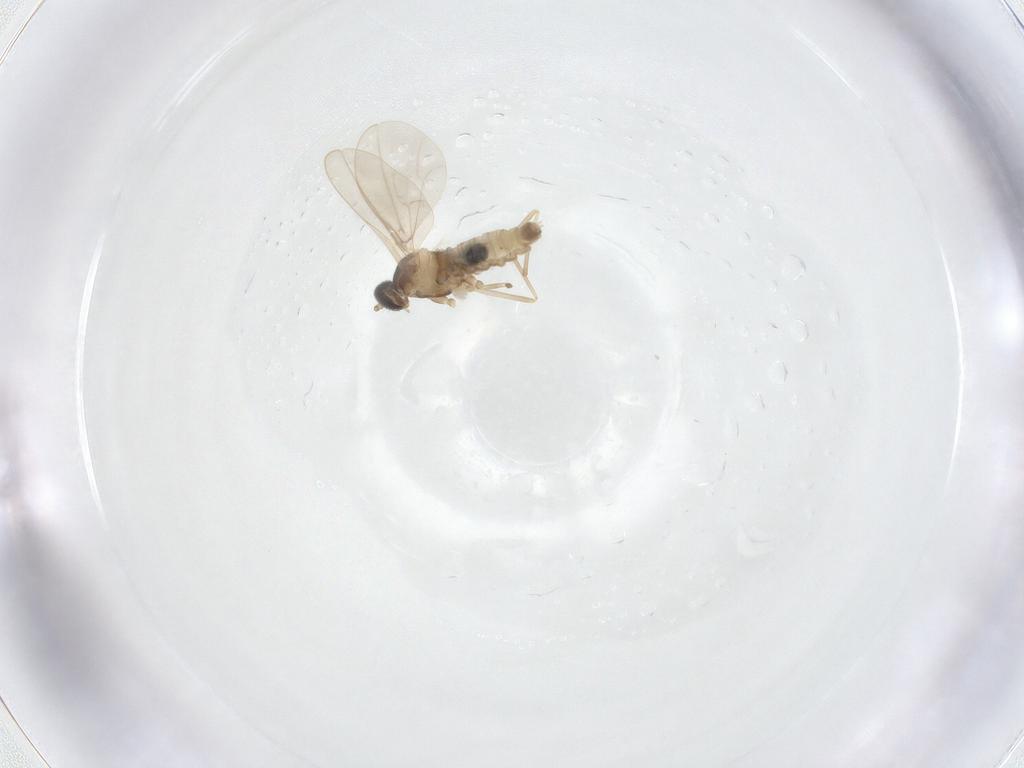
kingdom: Animalia
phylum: Arthropoda
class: Insecta
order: Diptera
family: Cecidomyiidae
